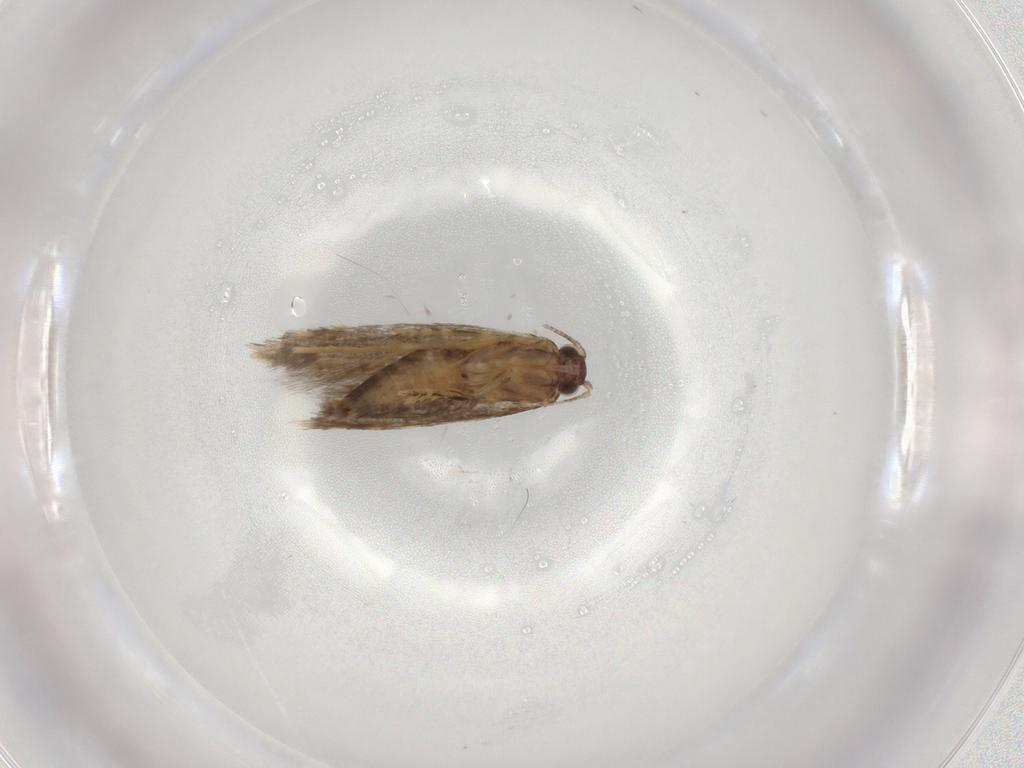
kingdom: Animalia
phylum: Arthropoda
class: Insecta
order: Lepidoptera
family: Tineidae
